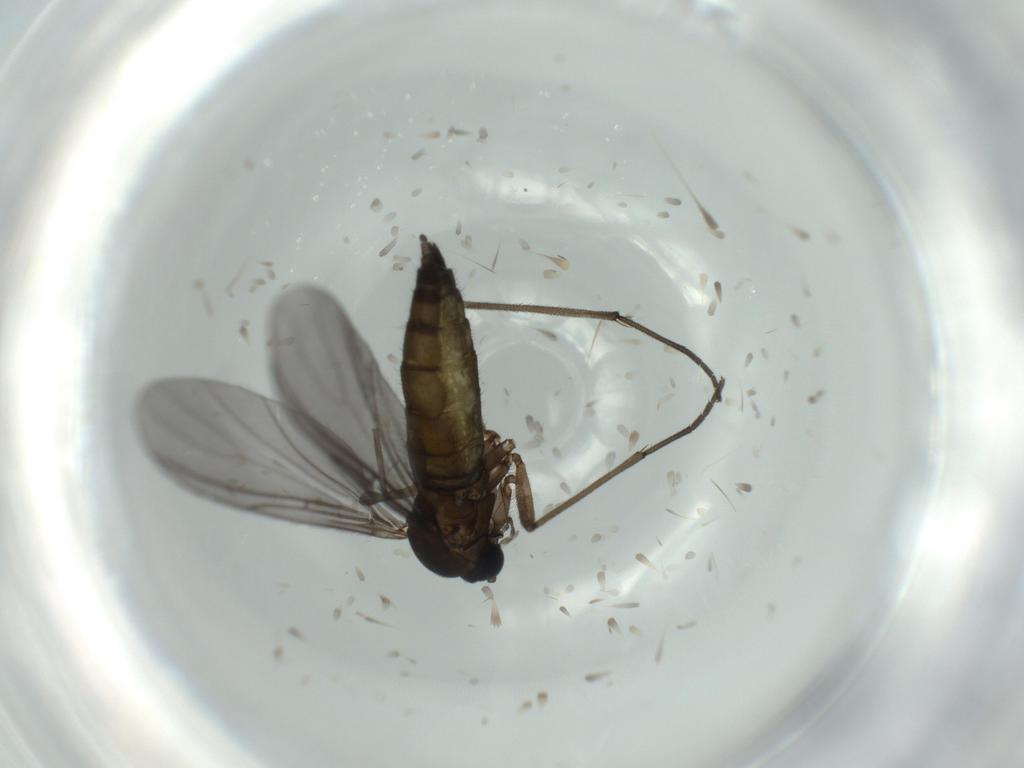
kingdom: Animalia
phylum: Arthropoda
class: Insecta
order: Diptera
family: Sciaridae
